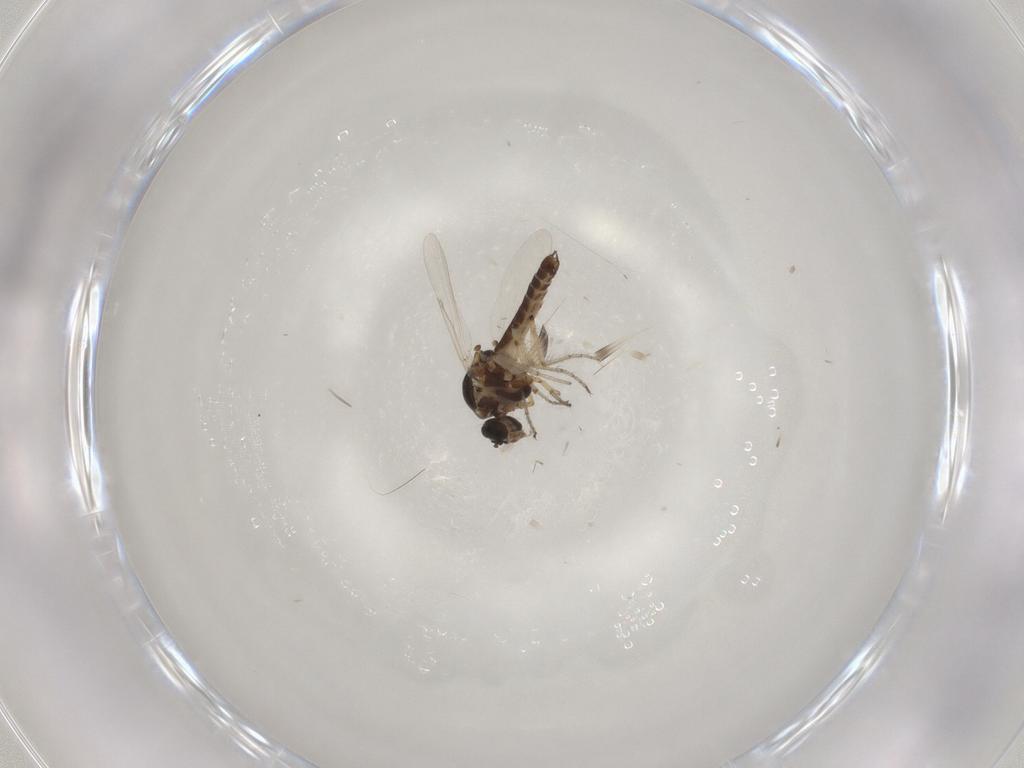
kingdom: Animalia
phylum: Arthropoda
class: Insecta
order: Diptera
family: Ceratopogonidae
